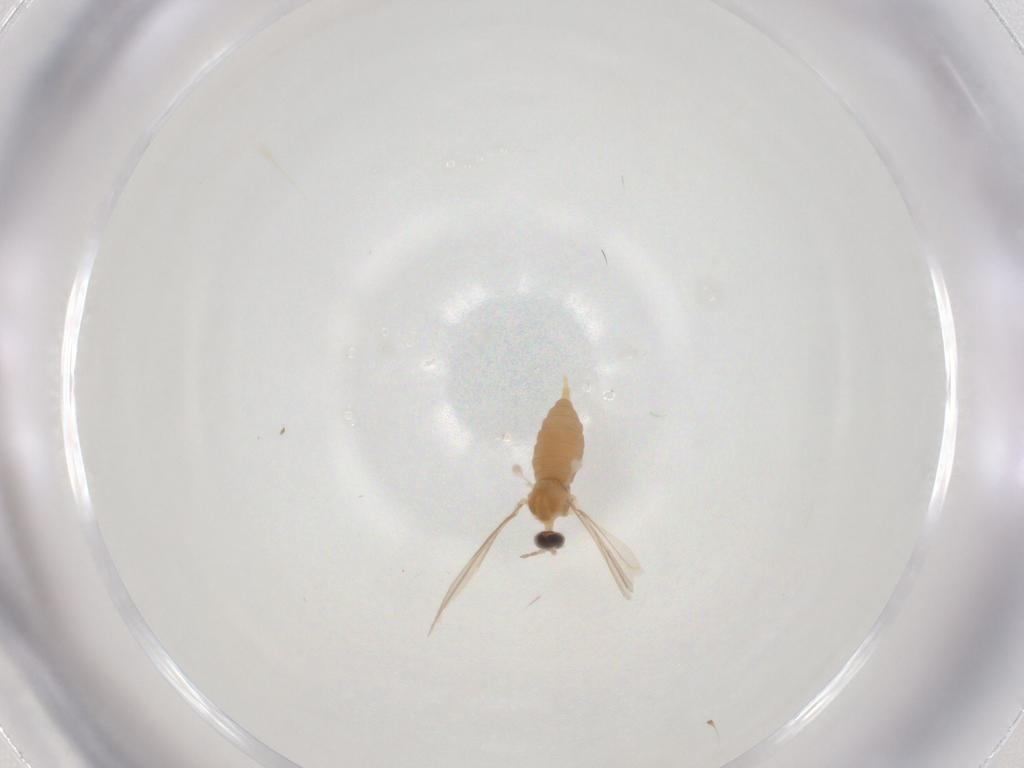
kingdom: Animalia
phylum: Arthropoda
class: Insecta
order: Diptera
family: Cecidomyiidae
